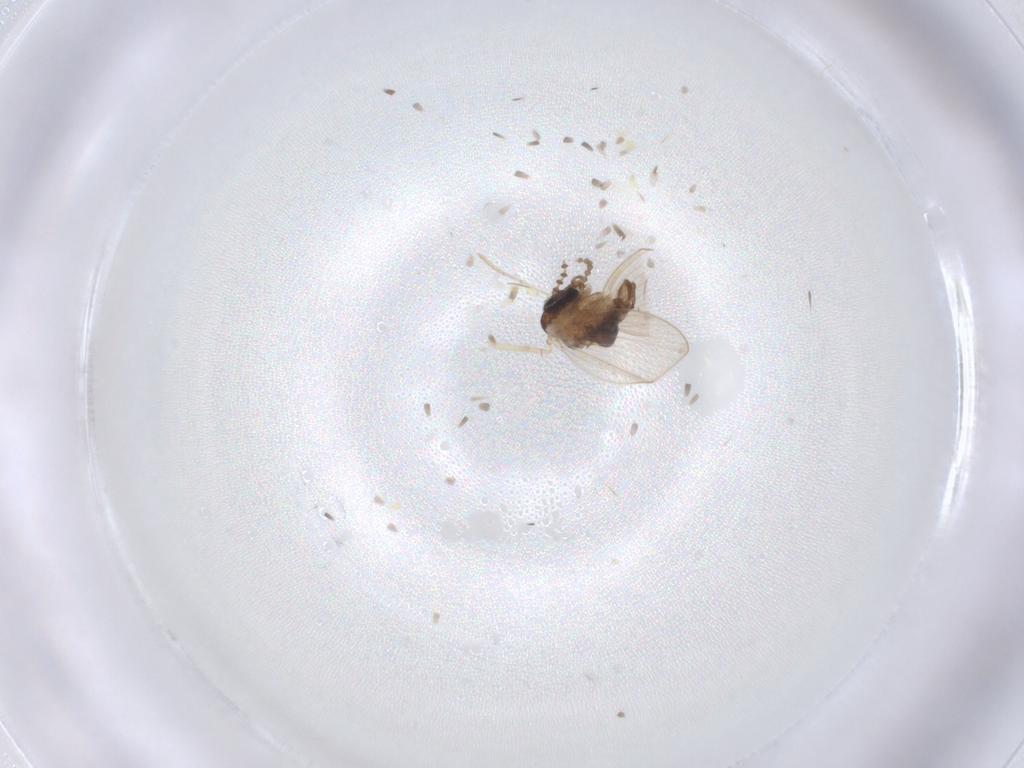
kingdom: Animalia
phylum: Arthropoda
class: Insecta
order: Diptera
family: Psychodidae
